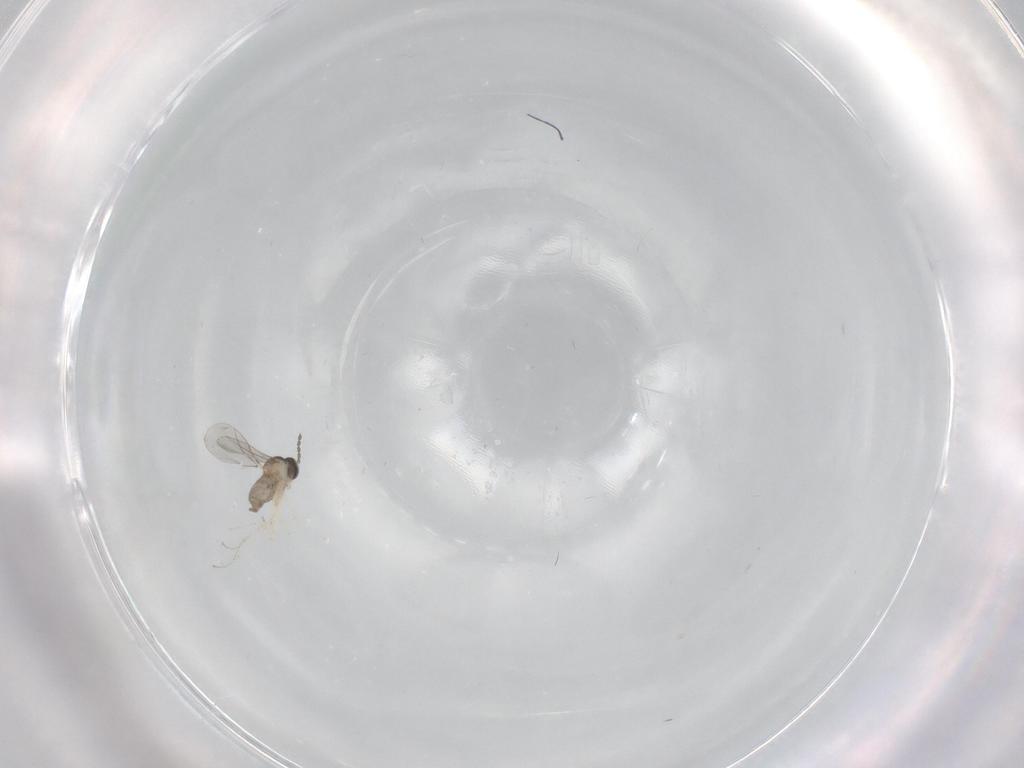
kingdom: Animalia
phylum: Arthropoda
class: Insecta
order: Diptera
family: Cecidomyiidae
